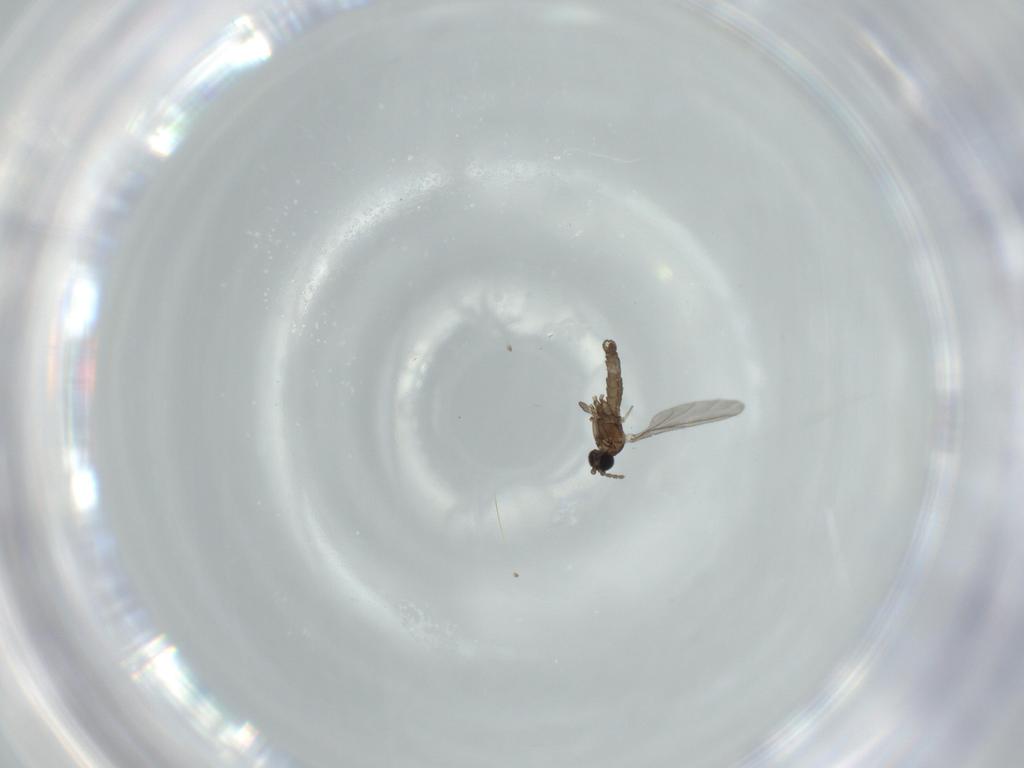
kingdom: Animalia
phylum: Arthropoda
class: Insecta
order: Diptera
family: Sciaridae
